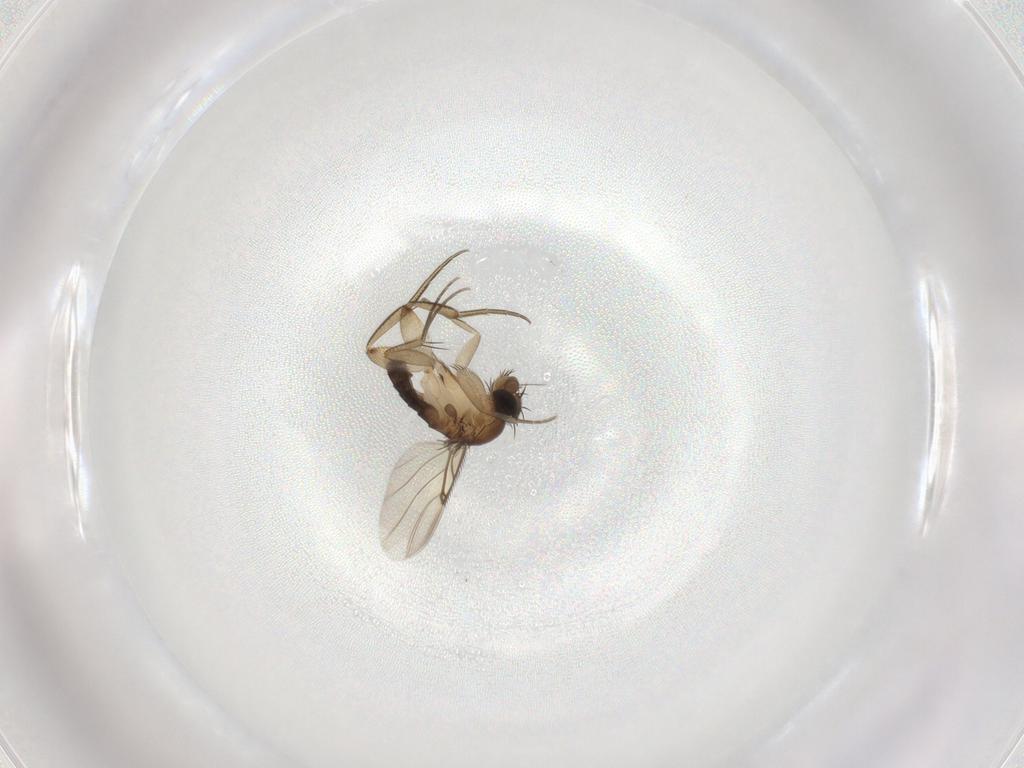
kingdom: Animalia
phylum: Arthropoda
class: Insecta
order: Diptera
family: Phoridae
